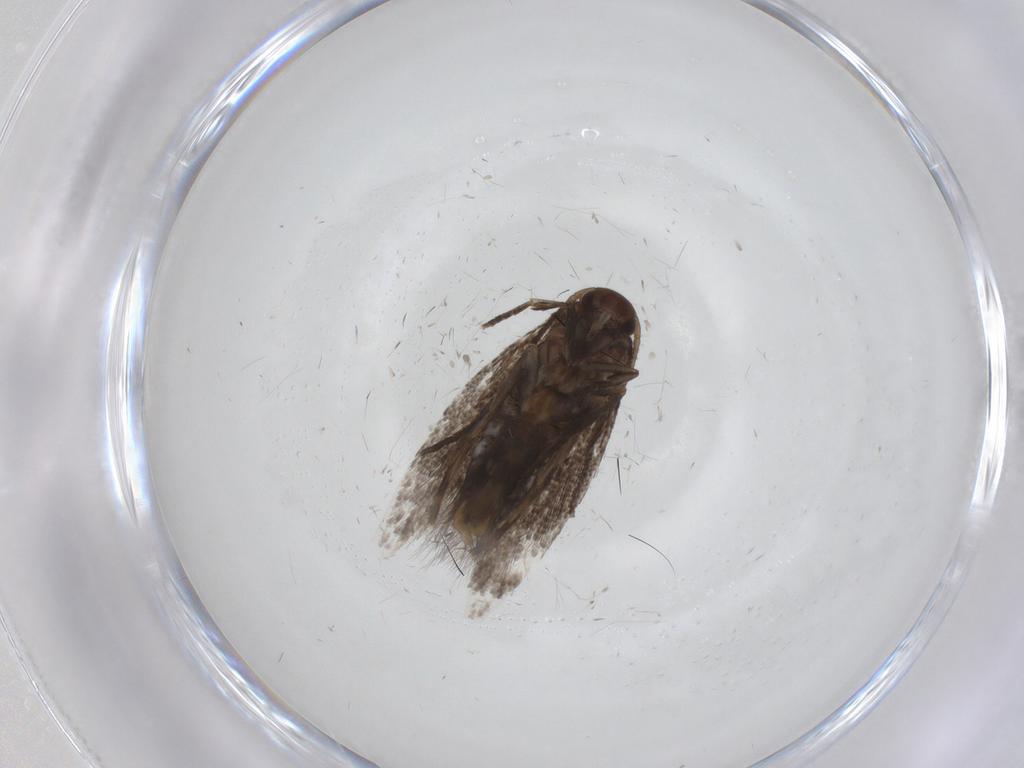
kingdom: Animalia
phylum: Arthropoda
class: Insecta
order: Lepidoptera
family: Elachistidae
